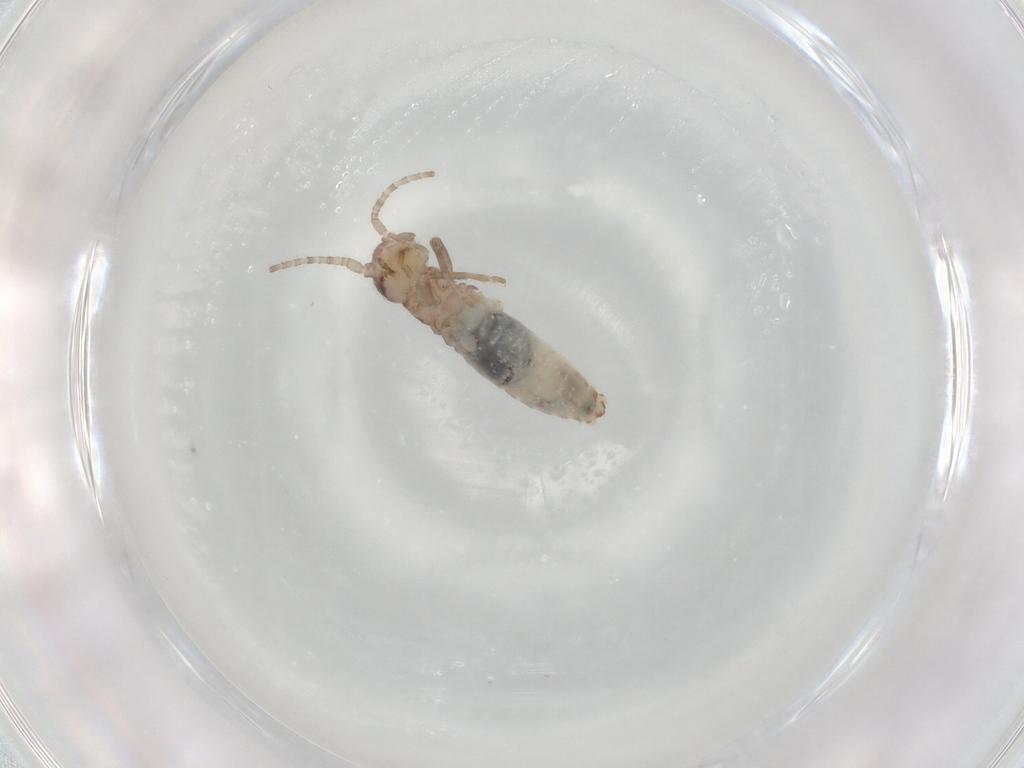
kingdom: Animalia
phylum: Arthropoda
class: Insecta
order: Orthoptera
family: Mogoplistidae
